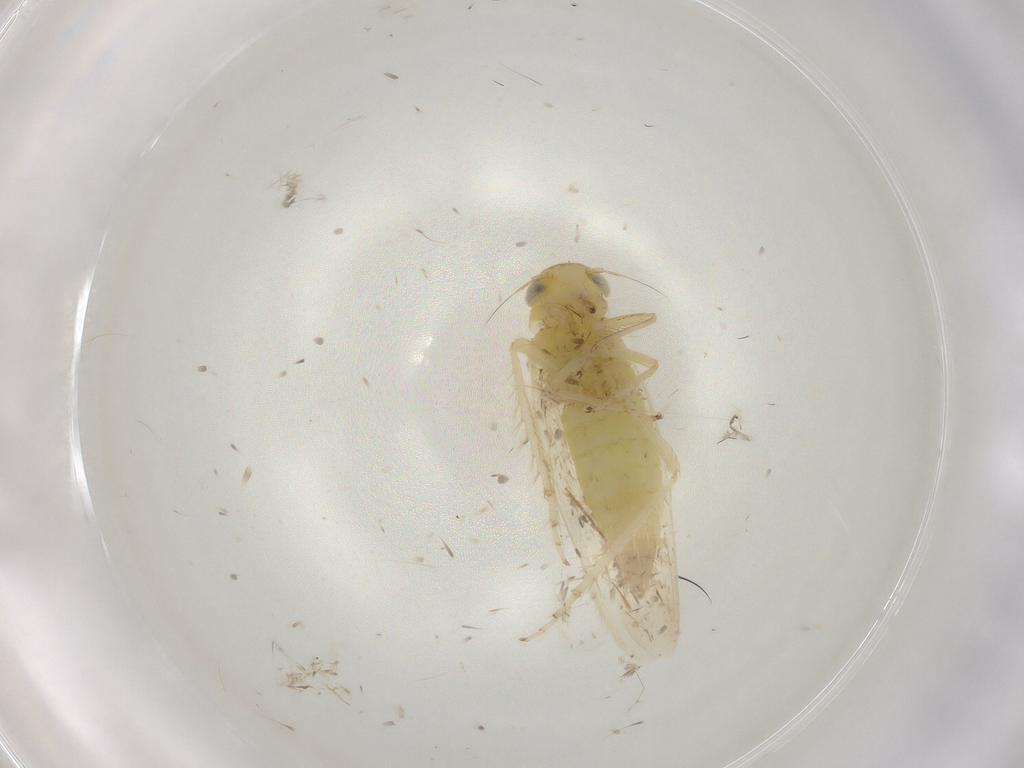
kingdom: Animalia
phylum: Arthropoda
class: Insecta
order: Hemiptera
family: Cicadellidae
